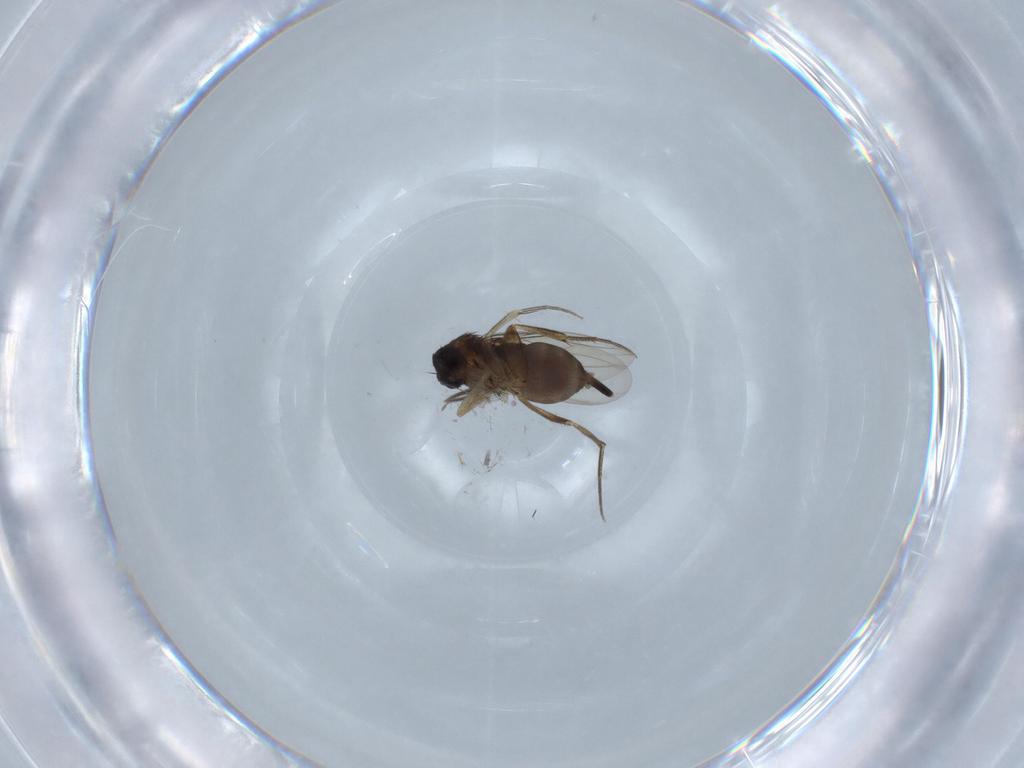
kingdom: Animalia
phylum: Arthropoda
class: Insecta
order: Diptera
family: Phoridae
